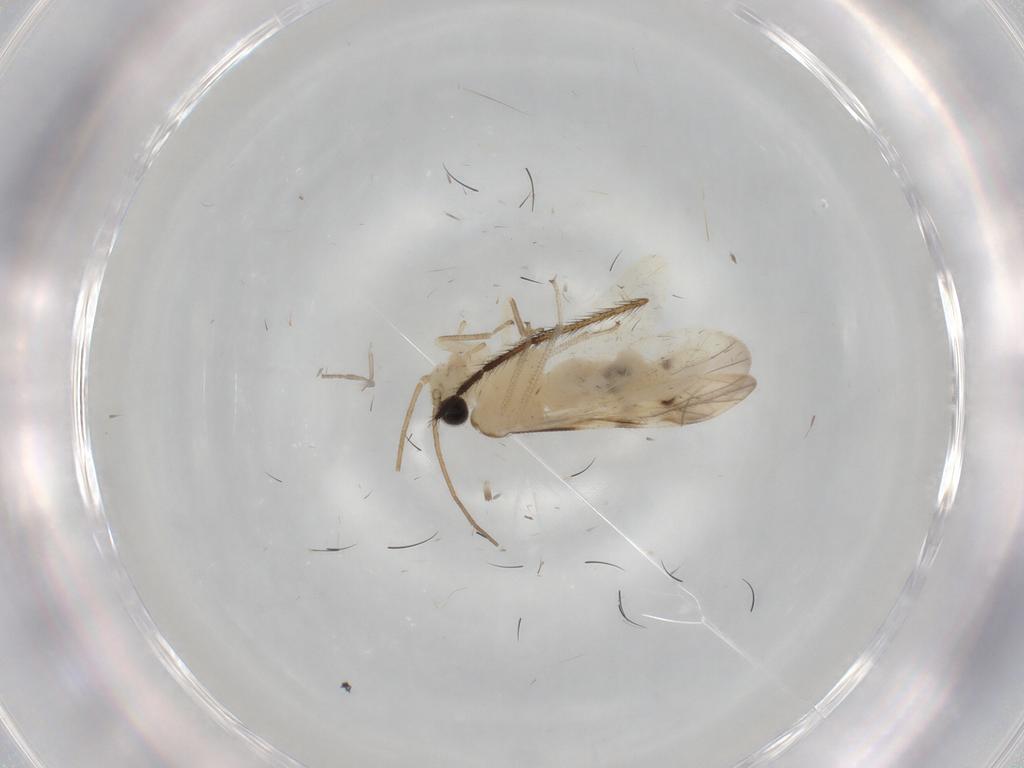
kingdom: Animalia
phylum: Arthropoda
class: Insecta
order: Psocodea
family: Caeciliusidae
